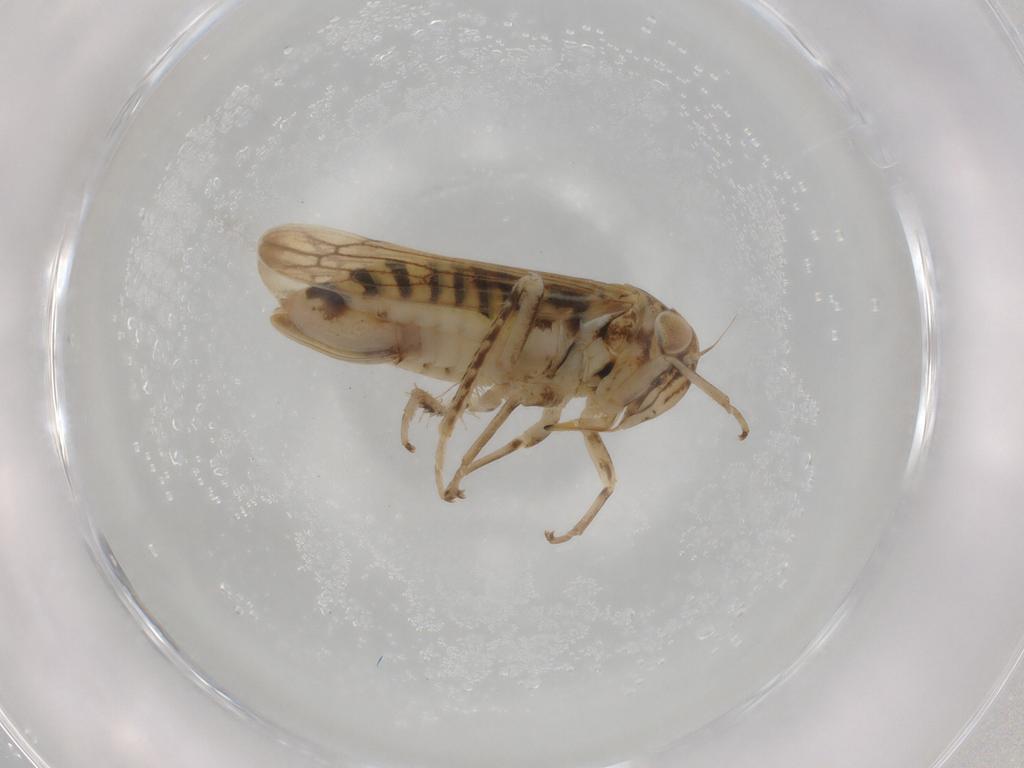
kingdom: Animalia
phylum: Arthropoda
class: Insecta
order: Hemiptera
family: Cicadellidae
